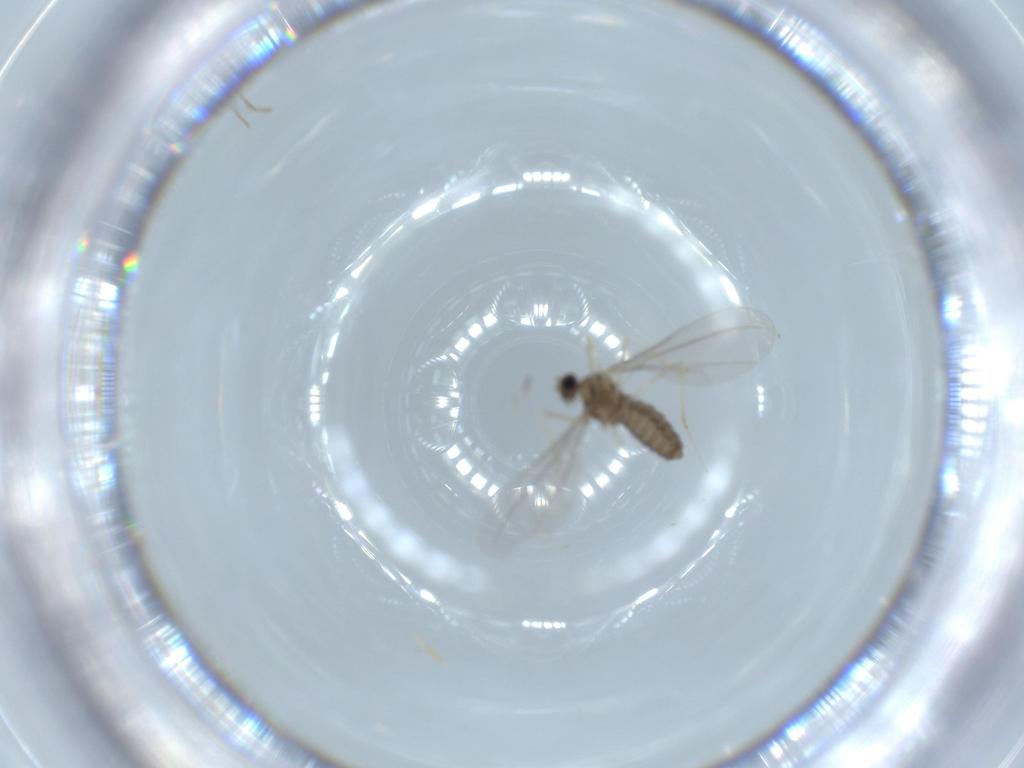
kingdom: Animalia
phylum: Arthropoda
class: Insecta
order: Diptera
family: Cecidomyiidae
